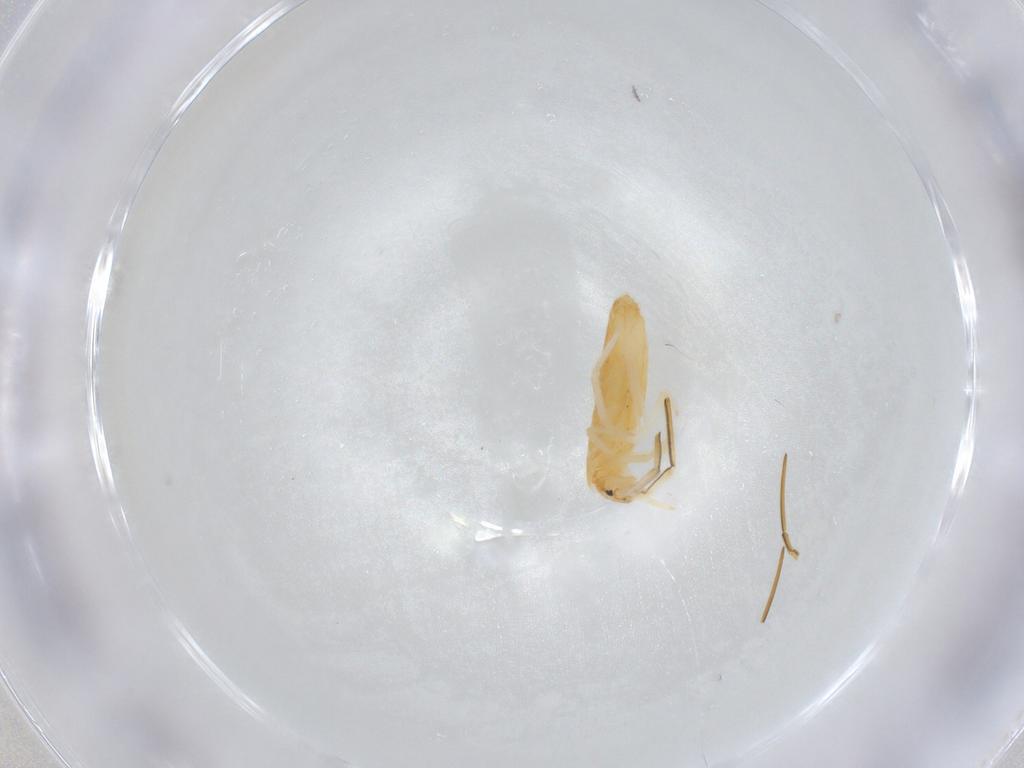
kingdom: Animalia
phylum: Arthropoda
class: Collembola
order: Entomobryomorpha
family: Entomobryidae
